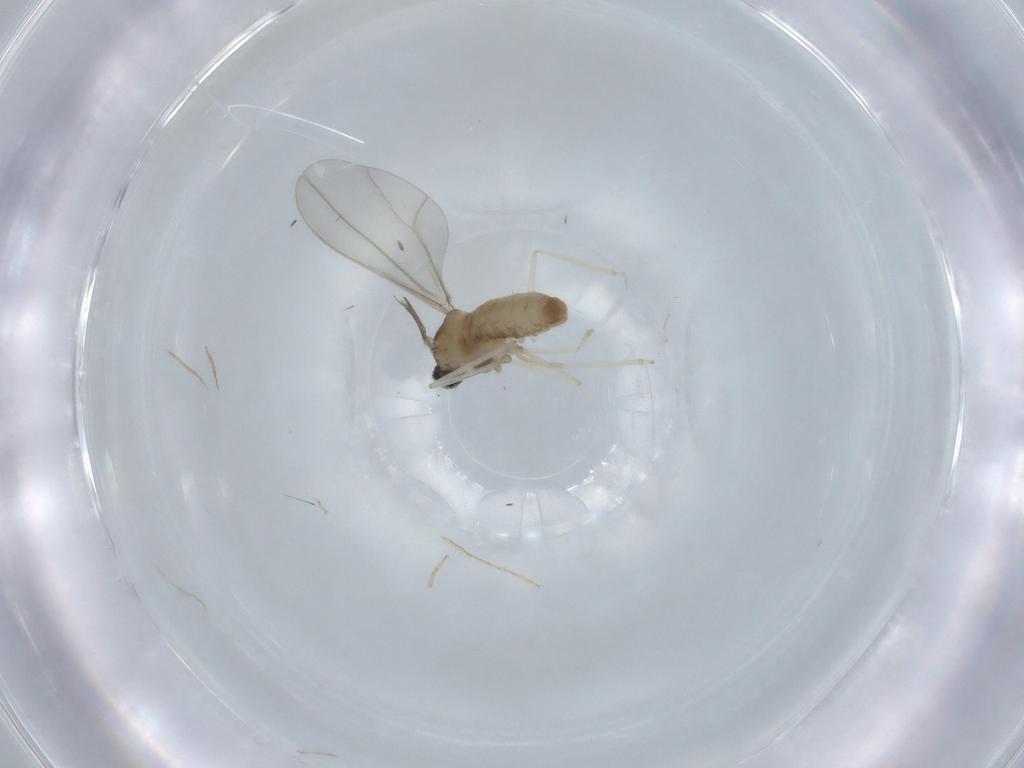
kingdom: Animalia
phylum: Arthropoda
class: Insecta
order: Diptera
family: Cecidomyiidae
